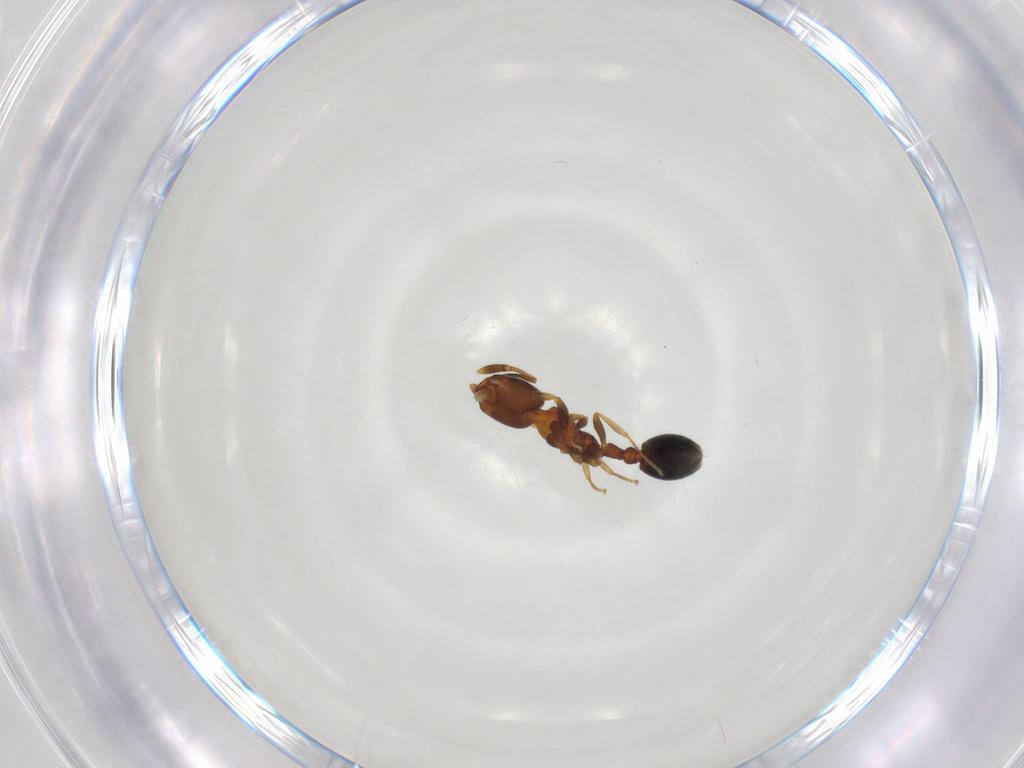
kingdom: Animalia
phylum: Arthropoda
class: Insecta
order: Hymenoptera
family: Formicidae
